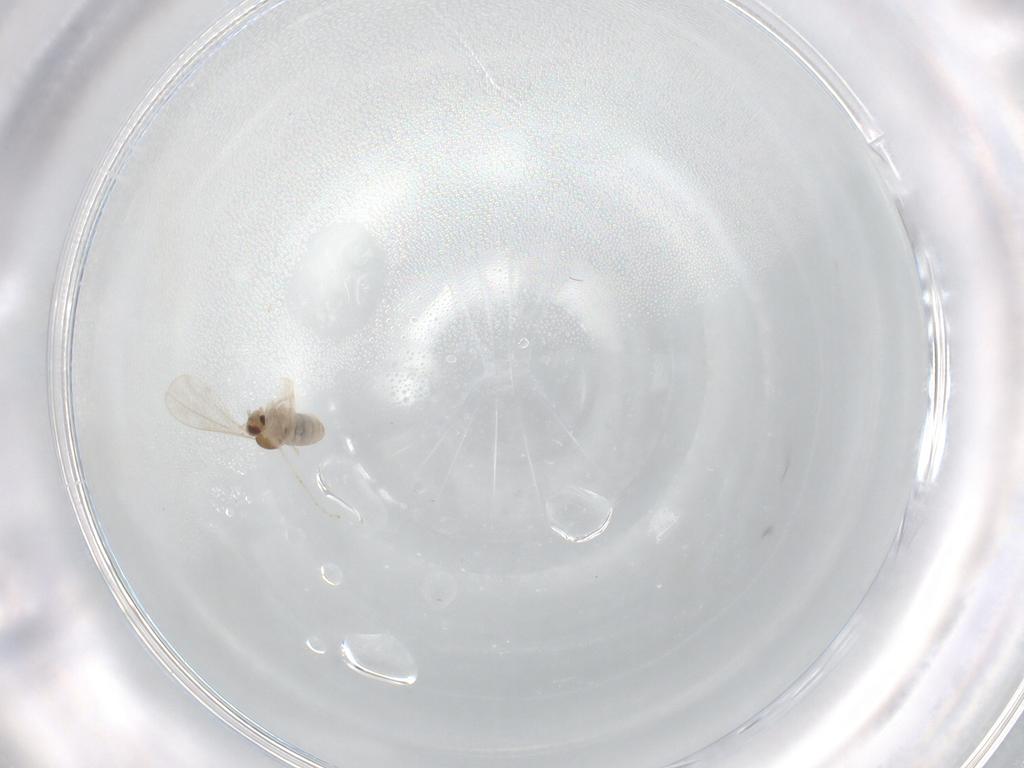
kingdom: Animalia
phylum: Arthropoda
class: Insecta
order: Diptera
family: Cecidomyiidae
